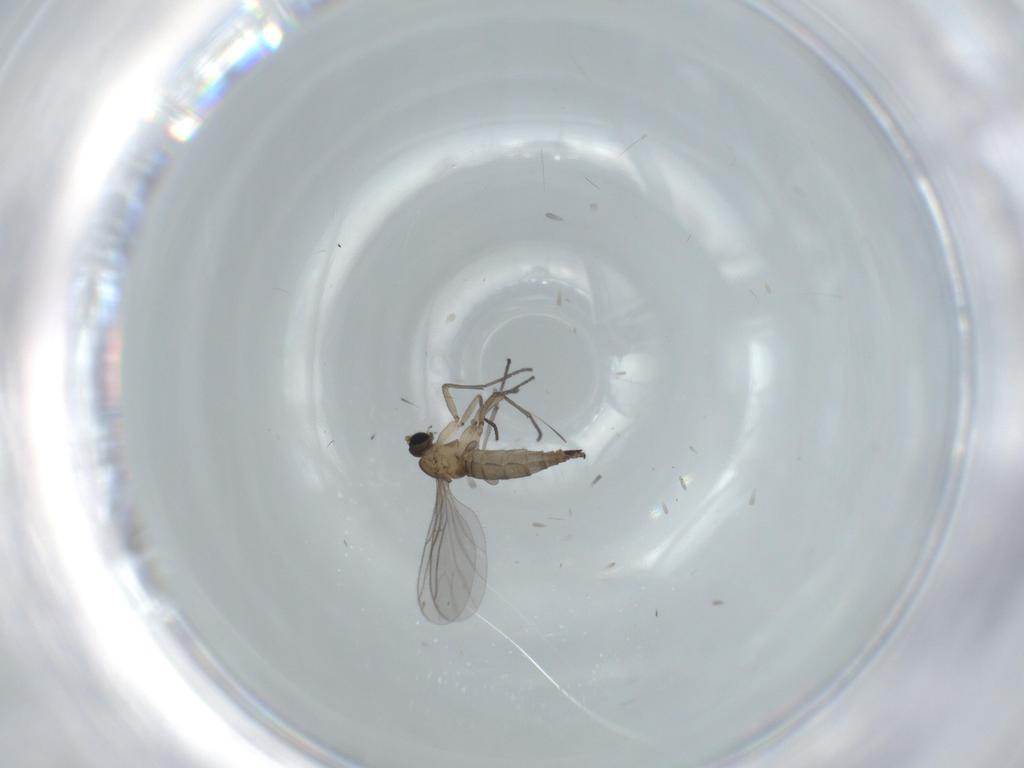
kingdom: Animalia
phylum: Arthropoda
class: Insecta
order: Diptera
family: Sciaridae
